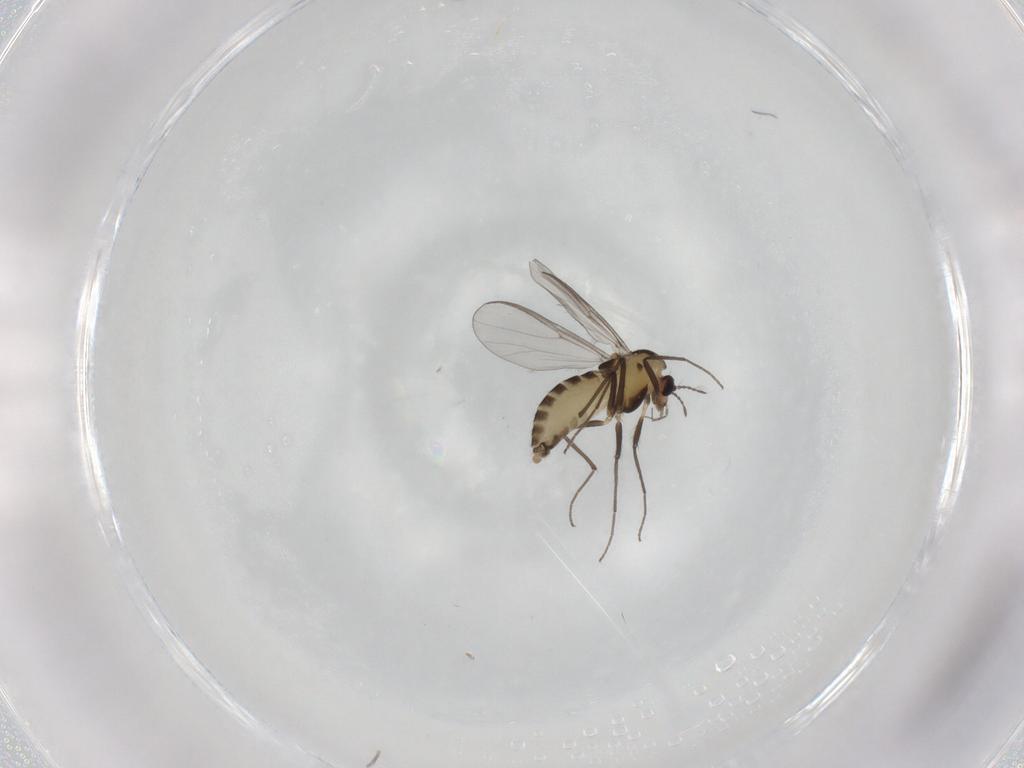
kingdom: Animalia
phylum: Arthropoda
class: Insecta
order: Diptera
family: Chironomidae
